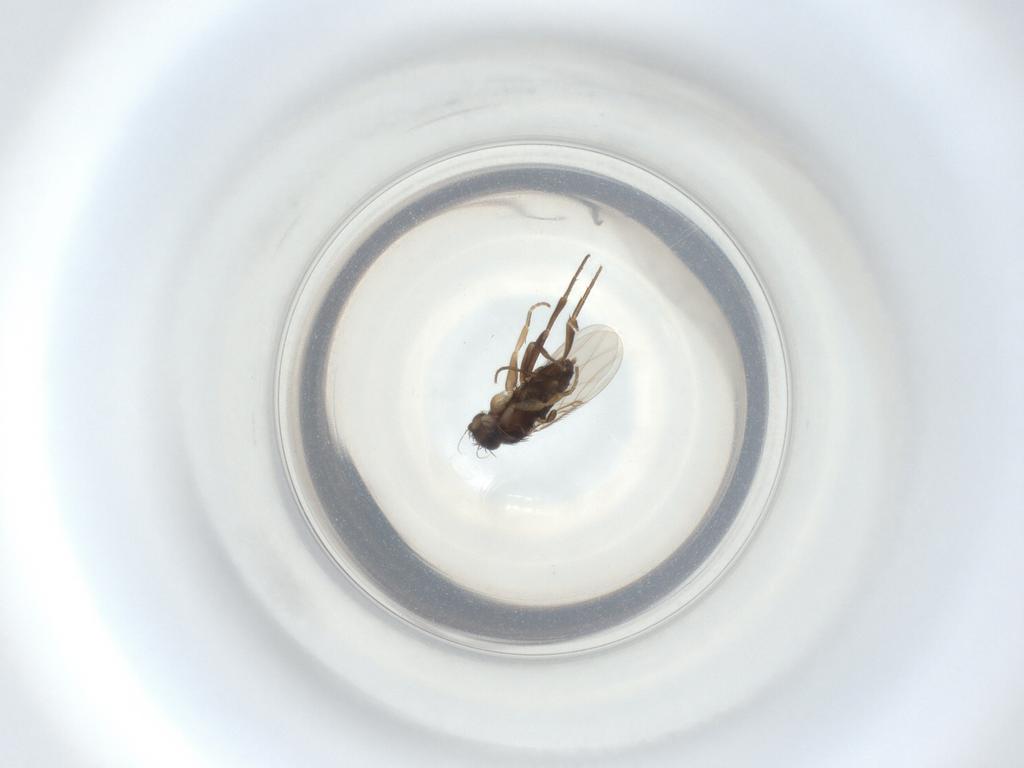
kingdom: Animalia
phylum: Arthropoda
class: Insecta
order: Diptera
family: Phoridae
